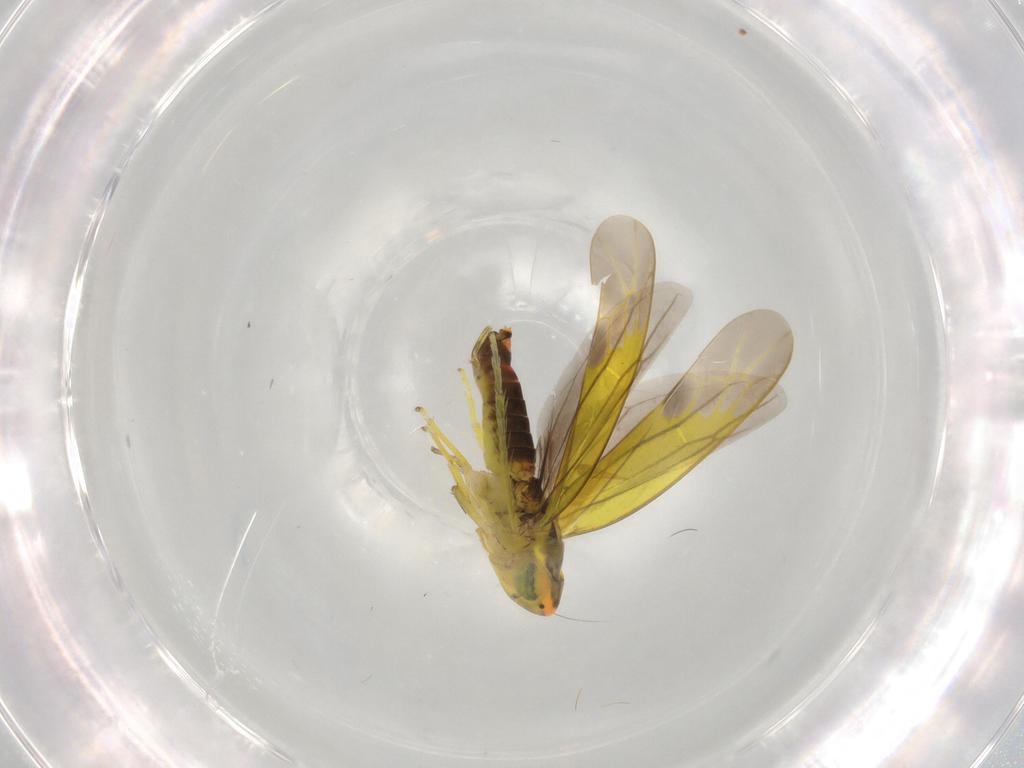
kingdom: Animalia
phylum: Arthropoda
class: Insecta
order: Hemiptera
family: Cicadellidae
